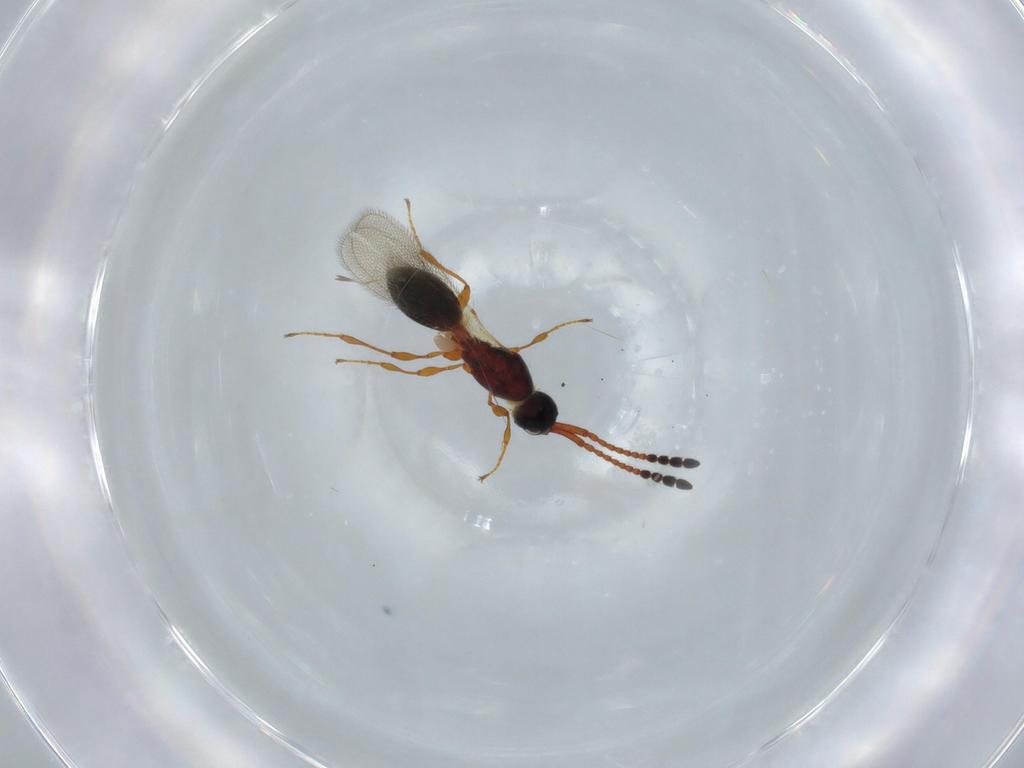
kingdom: Animalia
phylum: Arthropoda
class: Insecta
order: Hymenoptera
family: Diapriidae
